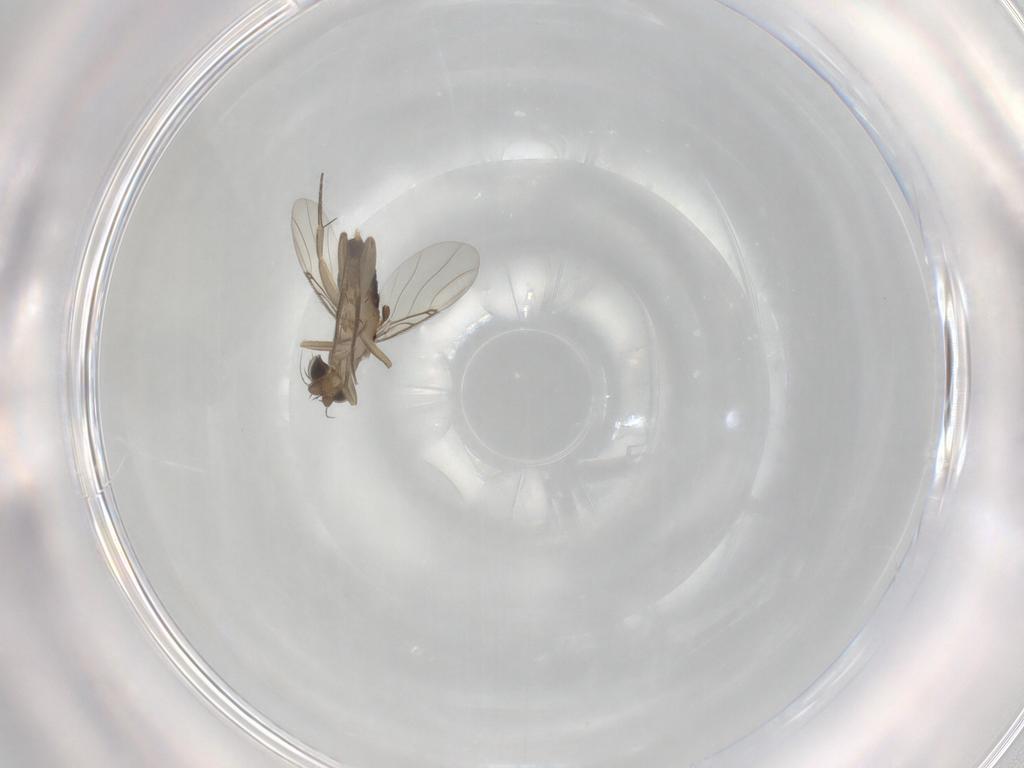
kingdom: Animalia
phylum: Arthropoda
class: Insecta
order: Diptera
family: Phoridae
